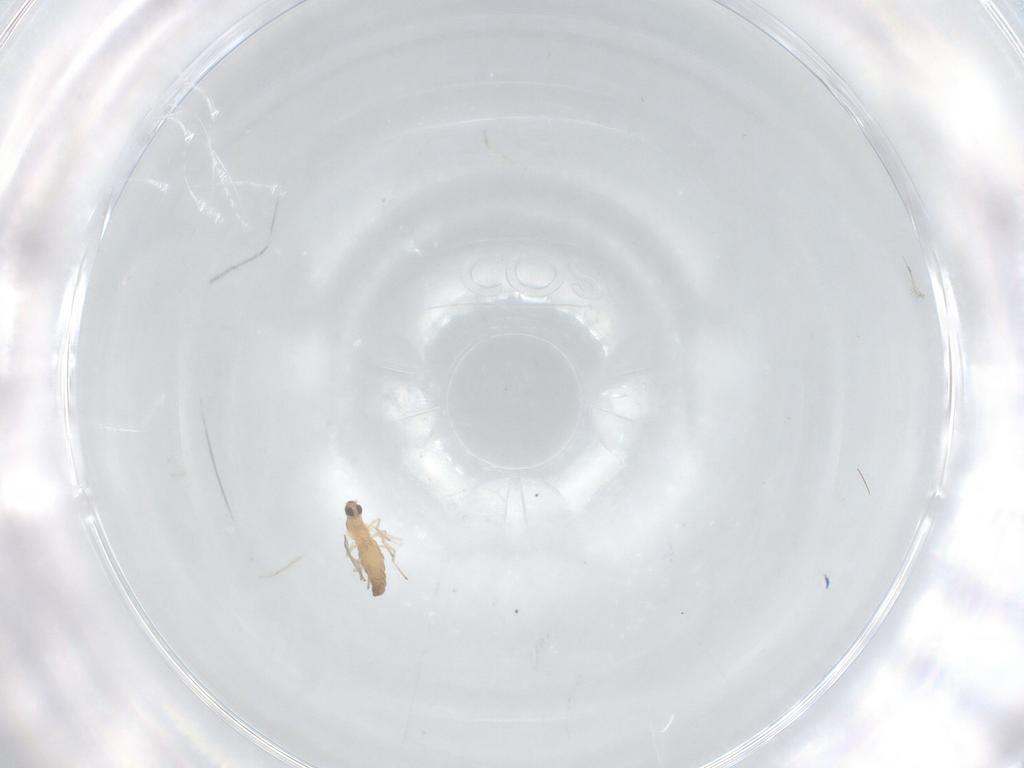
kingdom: Animalia
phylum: Arthropoda
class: Insecta
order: Diptera
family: Cecidomyiidae
